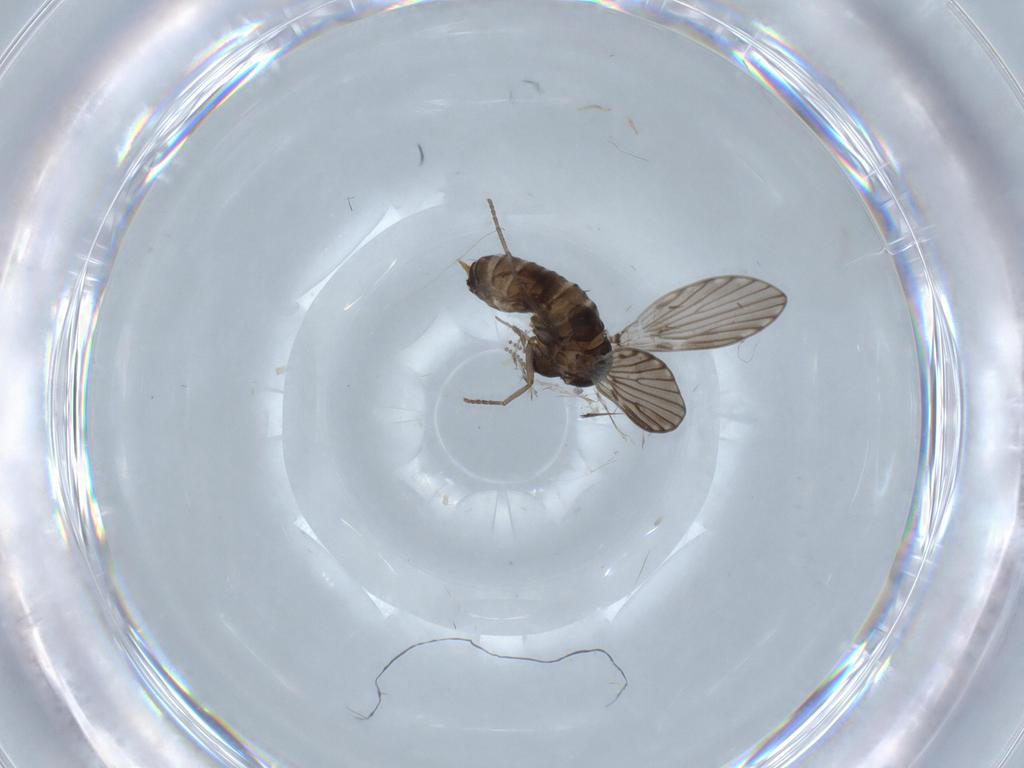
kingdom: Animalia
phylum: Arthropoda
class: Insecta
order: Diptera
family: Psychodidae
